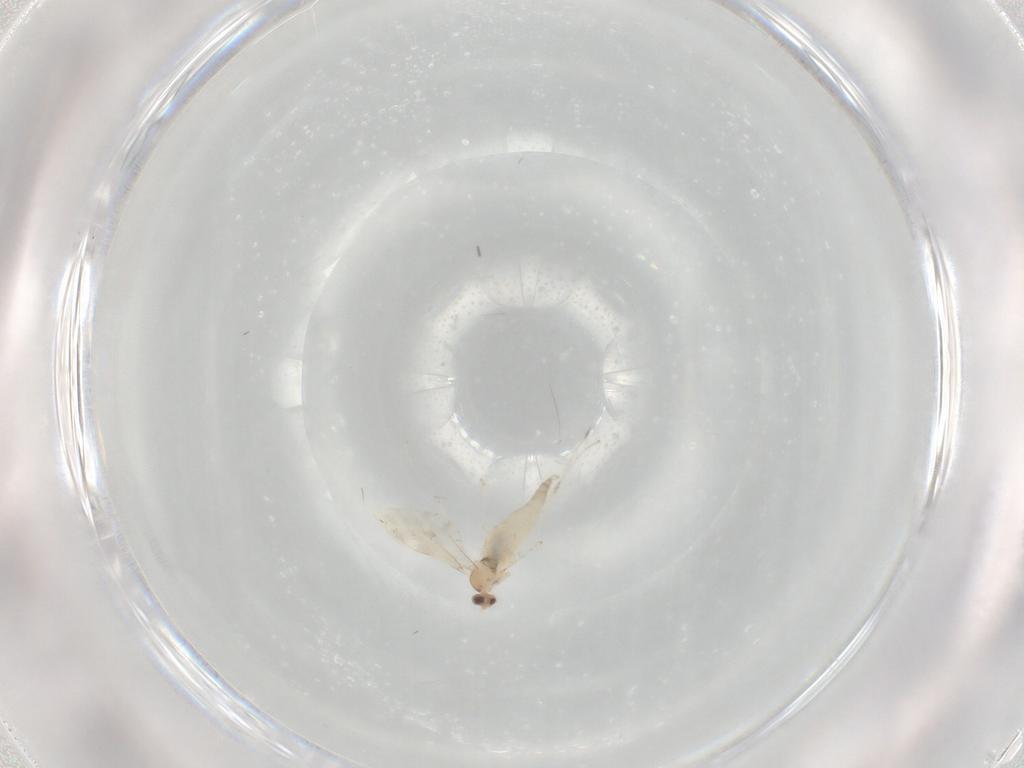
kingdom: Animalia
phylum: Arthropoda
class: Insecta
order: Diptera
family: Cecidomyiidae
